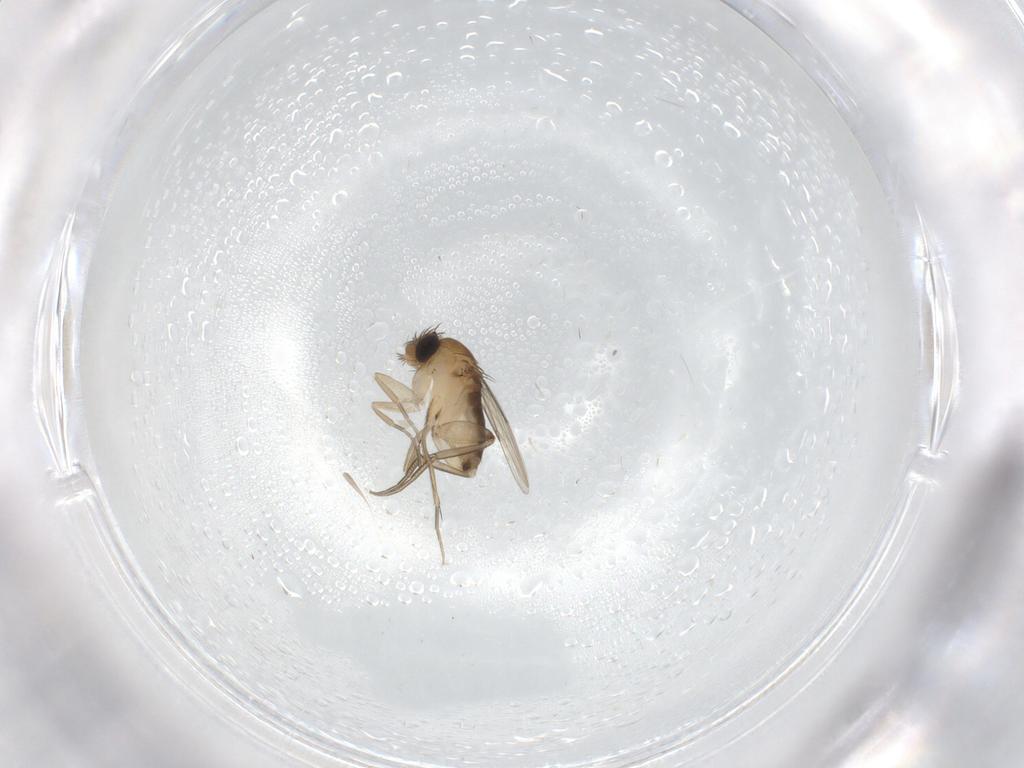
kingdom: Animalia
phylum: Arthropoda
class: Insecta
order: Diptera
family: Phoridae
